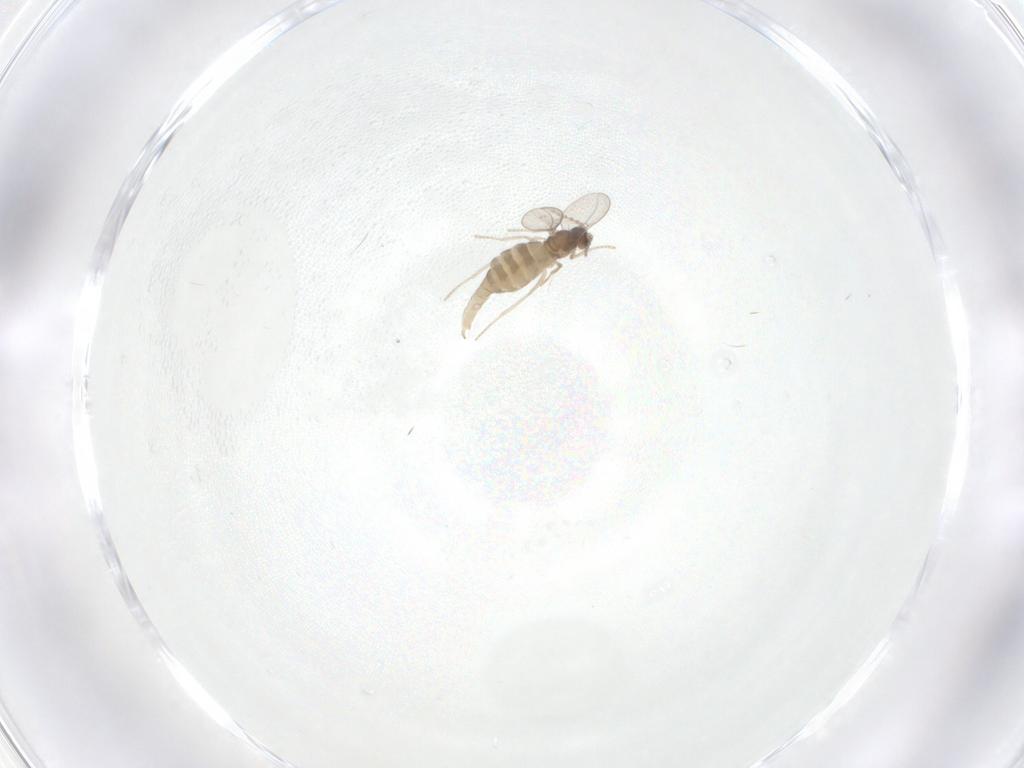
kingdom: Animalia
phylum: Arthropoda
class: Insecta
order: Diptera
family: Cecidomyiidae
